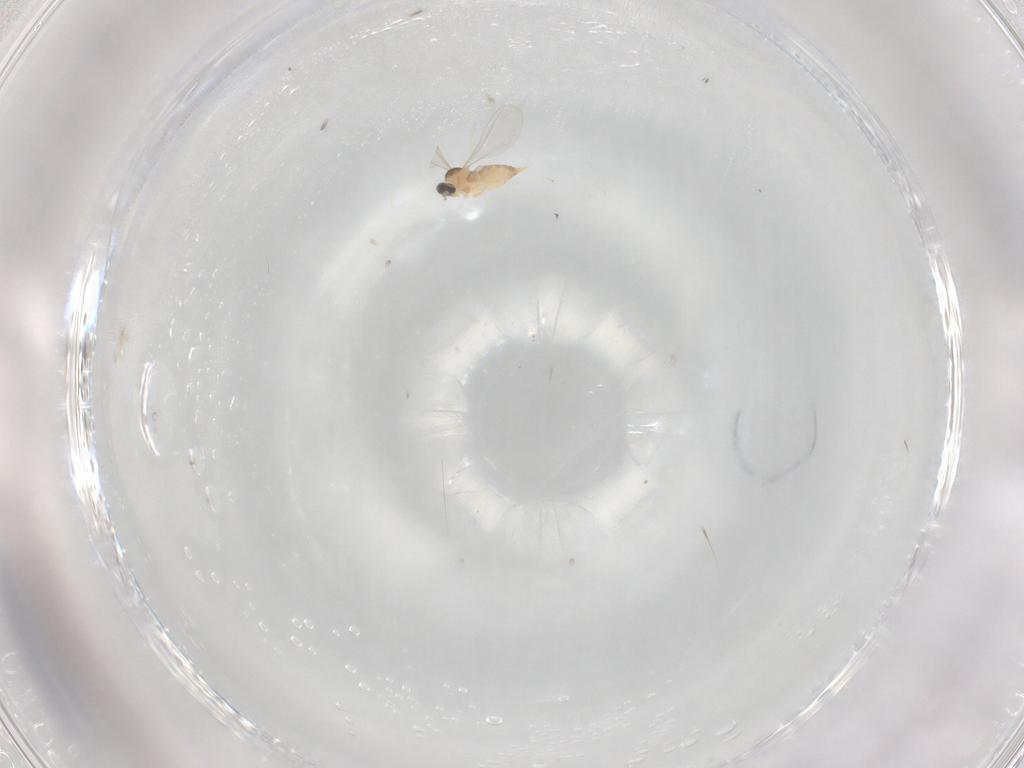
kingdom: Animalia
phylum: Arthropoda
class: Insecta
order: Diptera
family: Cecidomyiidae
